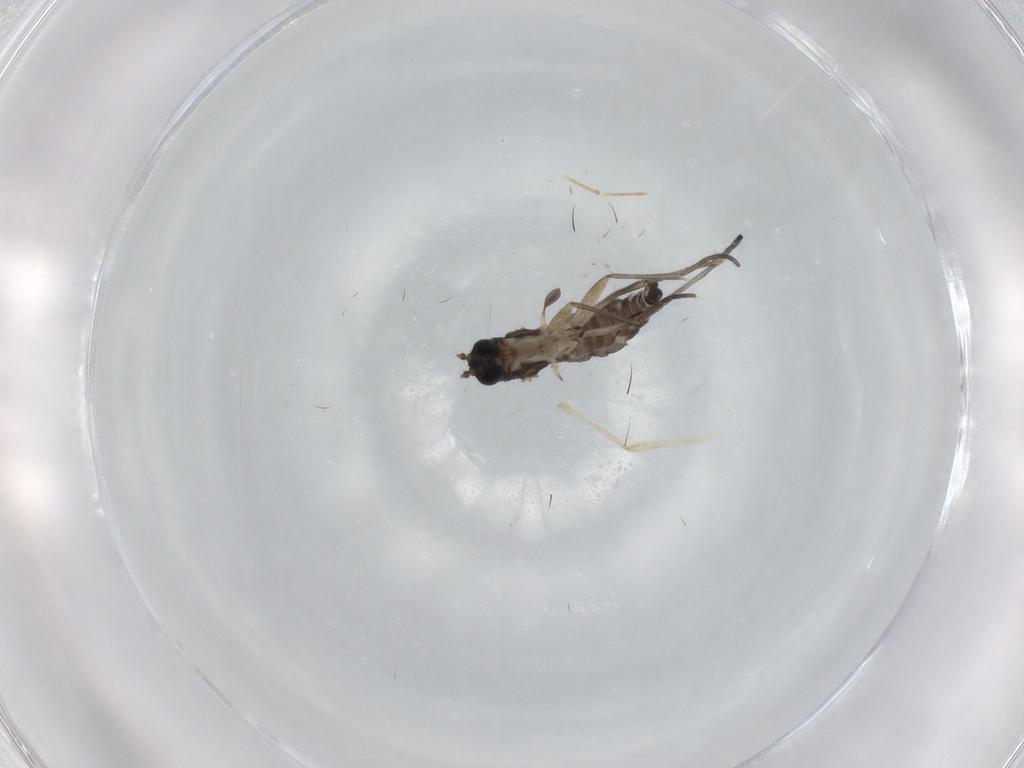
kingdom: Animalia
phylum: Arthropoda
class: Insecta
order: Diptera
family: Sciaridae
